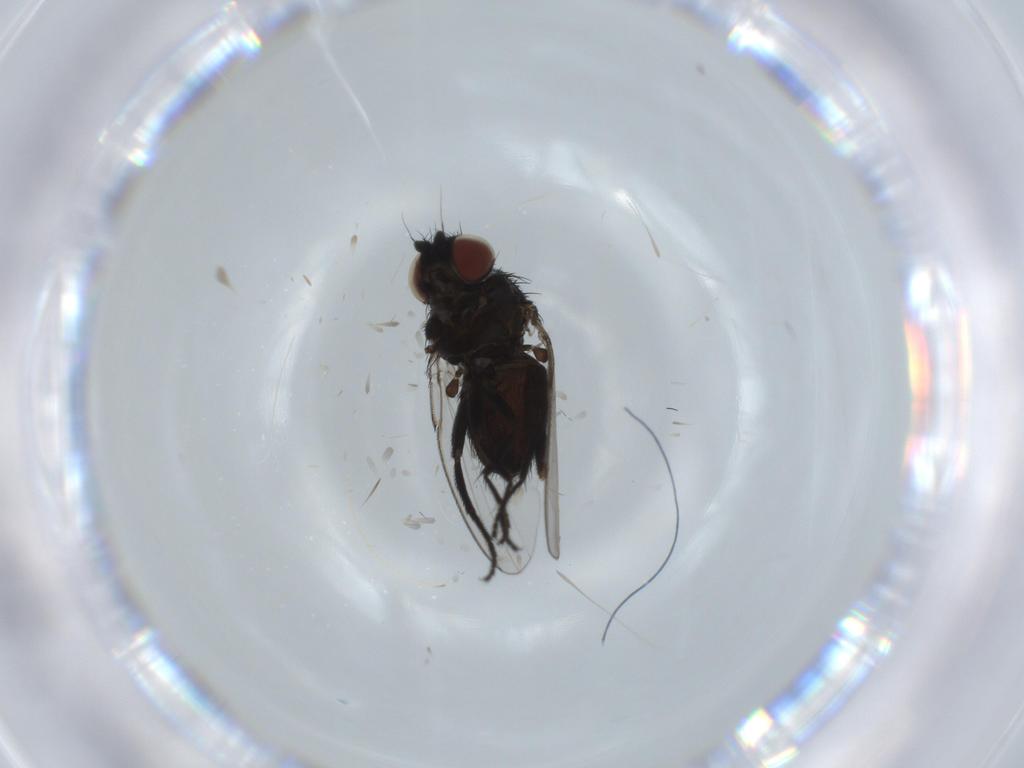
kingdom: Animalia
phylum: Arthropoda
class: Insecta
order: Diptera
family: Milichiidae
